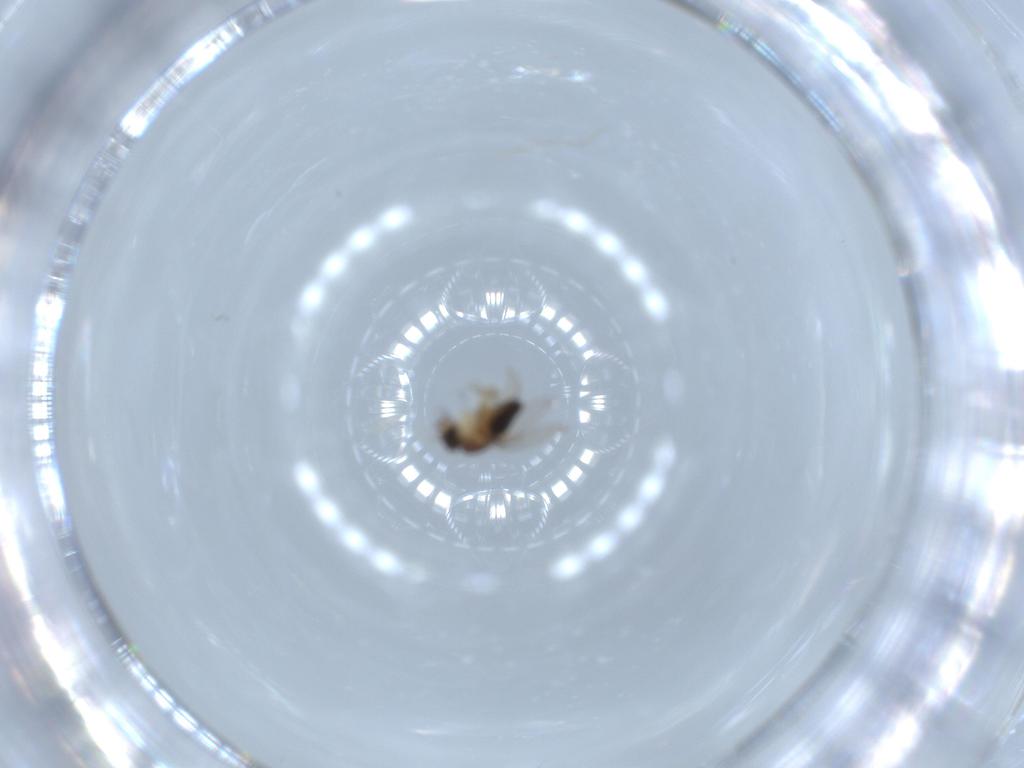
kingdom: Animalia
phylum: Arthropoda
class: Insecta
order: Diptera
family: Phoridae
